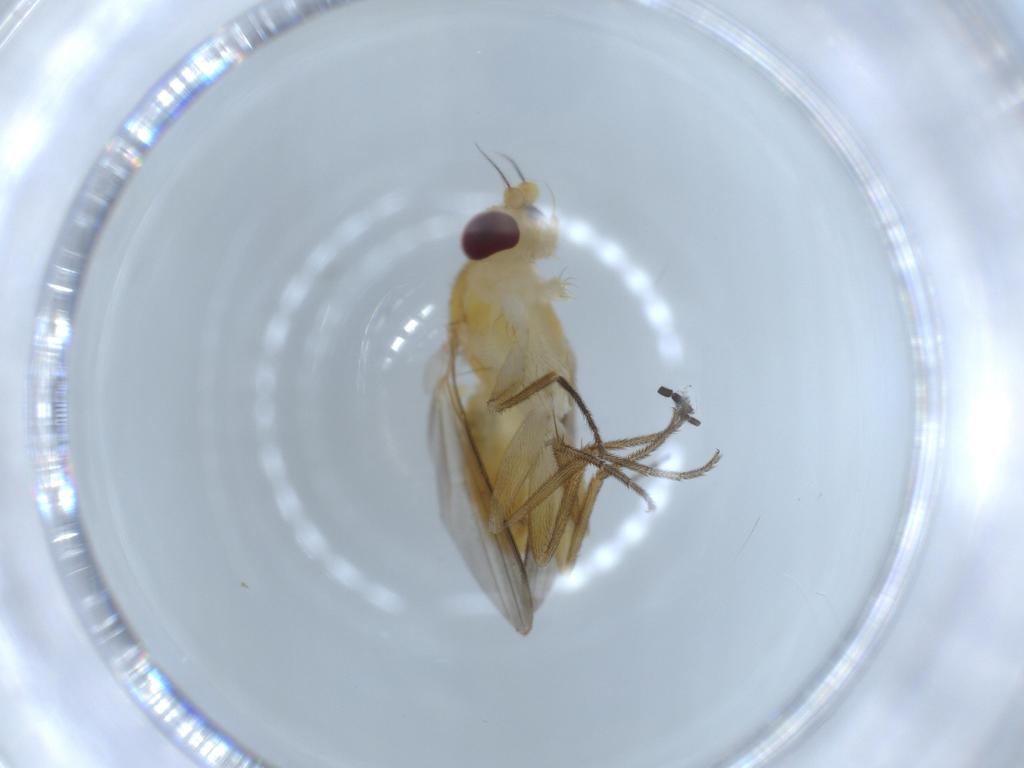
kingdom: Animalia
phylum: Arthropoda
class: Insecta
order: Diptera
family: Clusiidae
